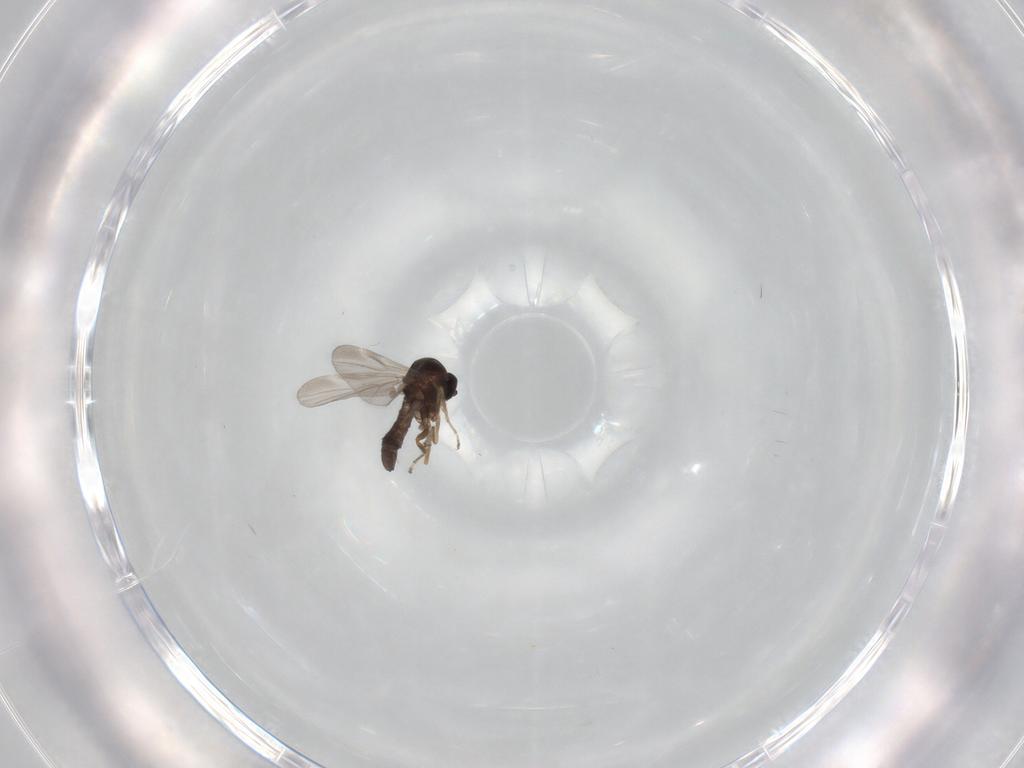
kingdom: Animalia
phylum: Arthropoda
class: Insecta
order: Diptera
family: Ceratopogonidae
